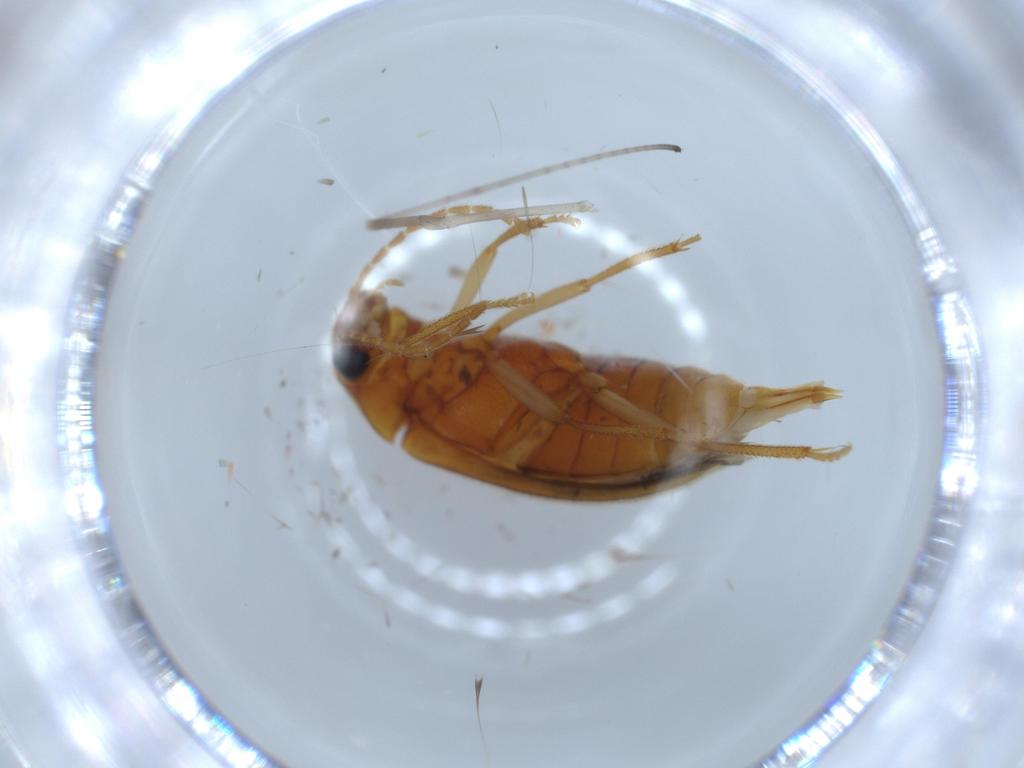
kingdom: Animalia
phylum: Arthropoda
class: Insecta
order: Coleoptera
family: Ptilodactylidae
